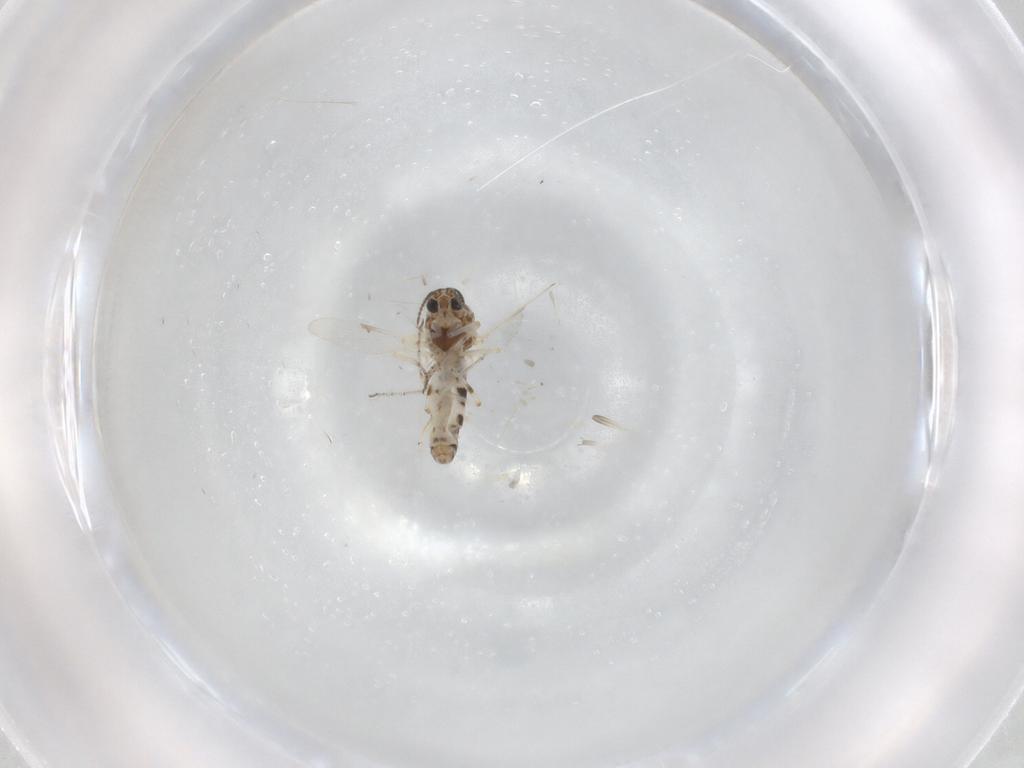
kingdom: Animalia
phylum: Arthropoda
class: Insecta
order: Diptera
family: Ceratopogonidae
